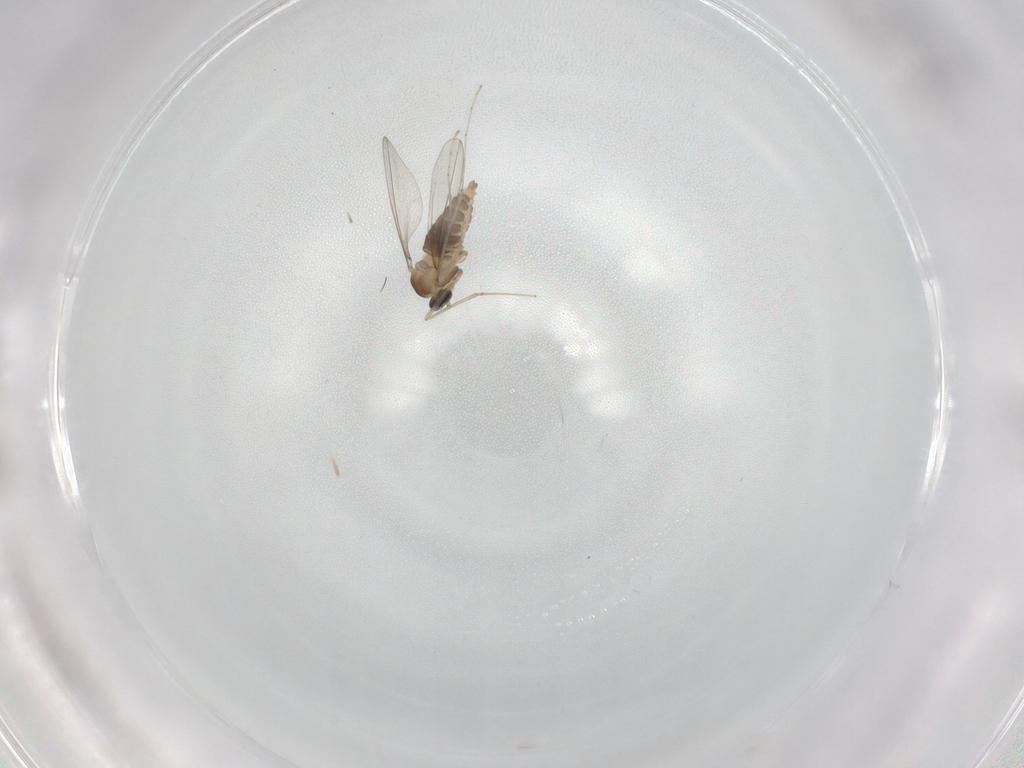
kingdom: Animalia
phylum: Arthropoda
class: Insecta
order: Diptera
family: Cecidomyiidae
